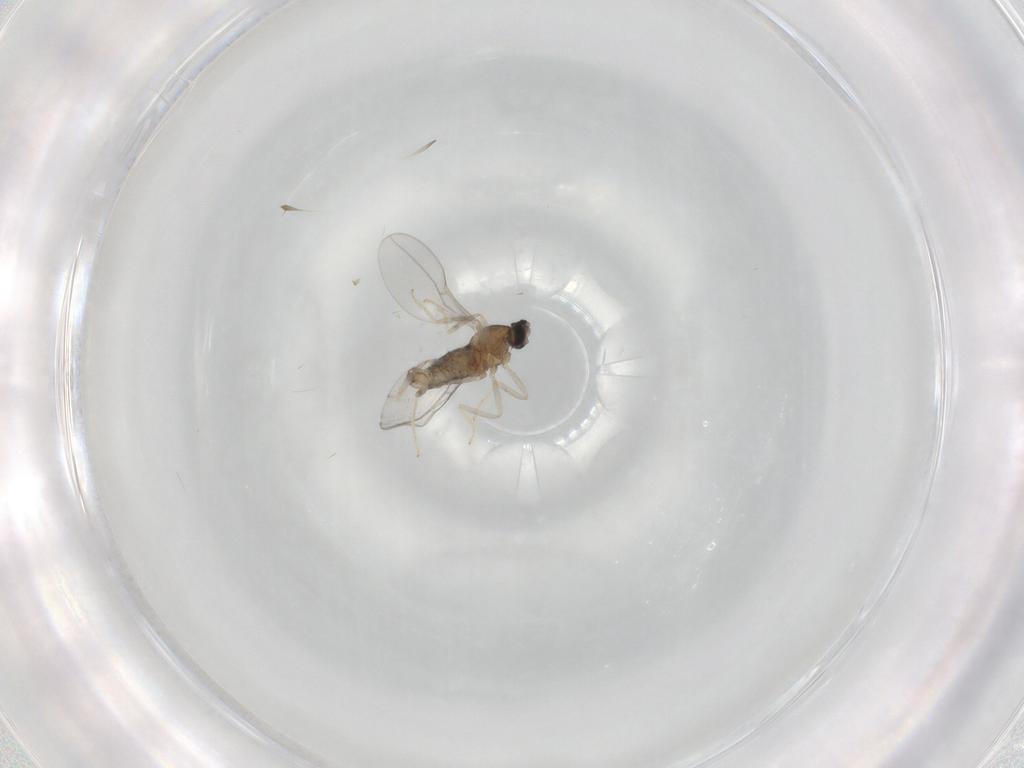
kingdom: Animalia
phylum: Arthropoda
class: Insecta
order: Diptera
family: Cecidomyiidae
